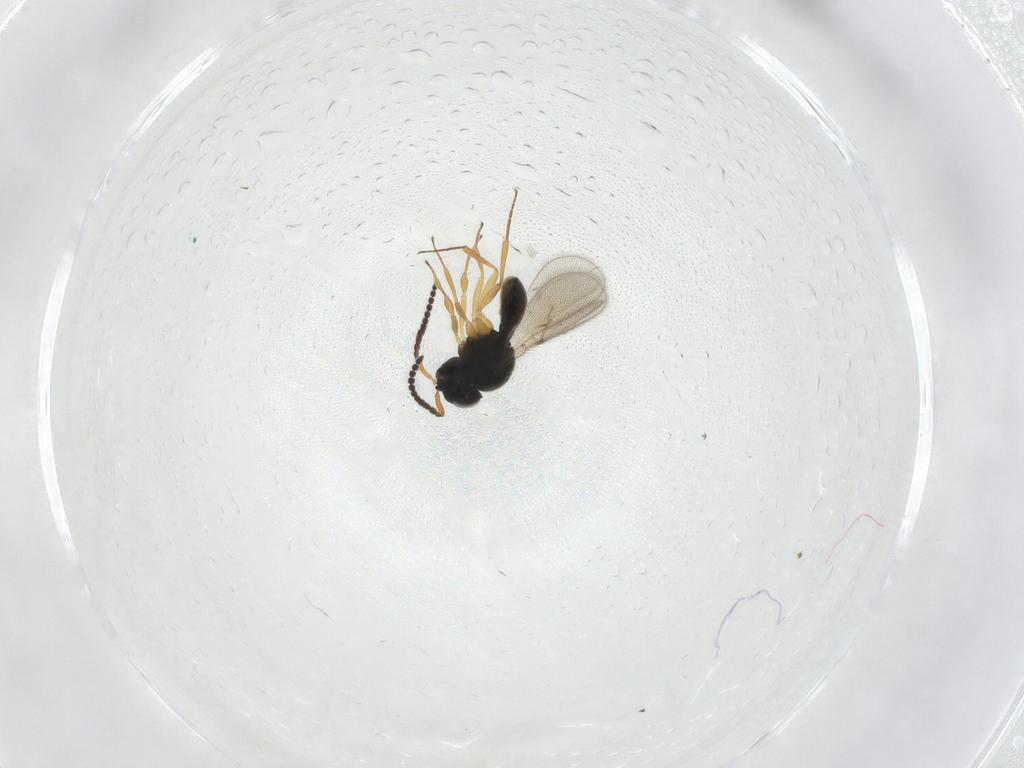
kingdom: Animalia
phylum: Arthropoda
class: Insecta
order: Hymenoptera
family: Scelionidae
